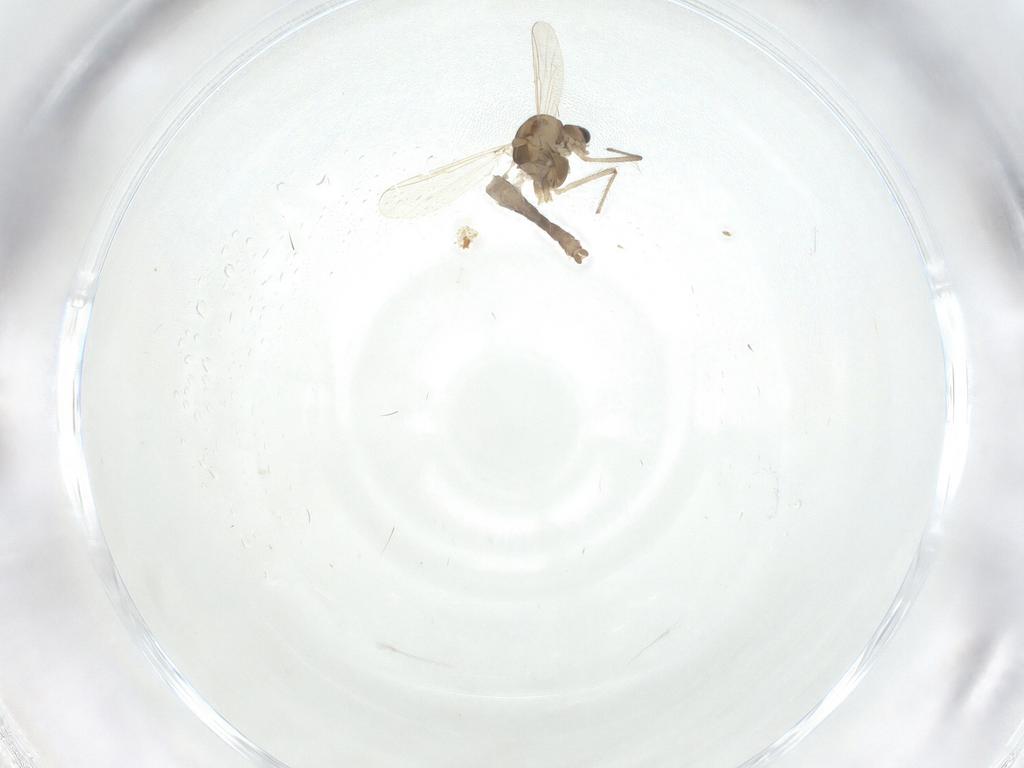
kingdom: Animalia
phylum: Arthropoda
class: Insecta
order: Diptera
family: Chironomidae
